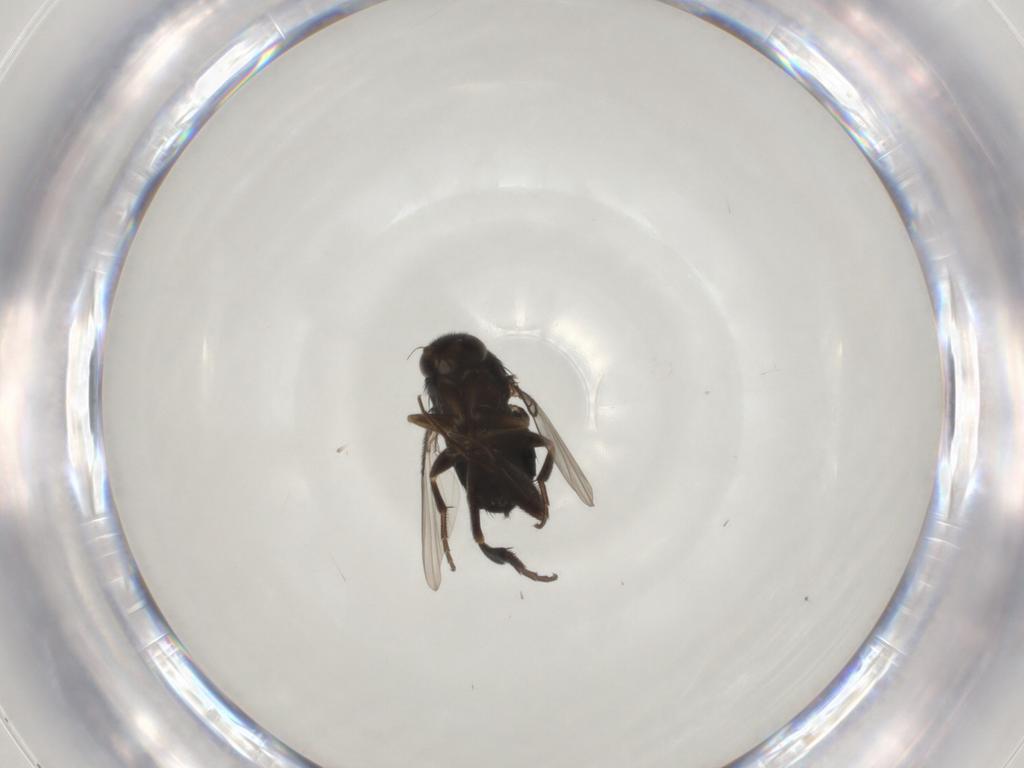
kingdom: Animalia
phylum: Arthropoda
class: Insecta
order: Diptera
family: Phoridae
